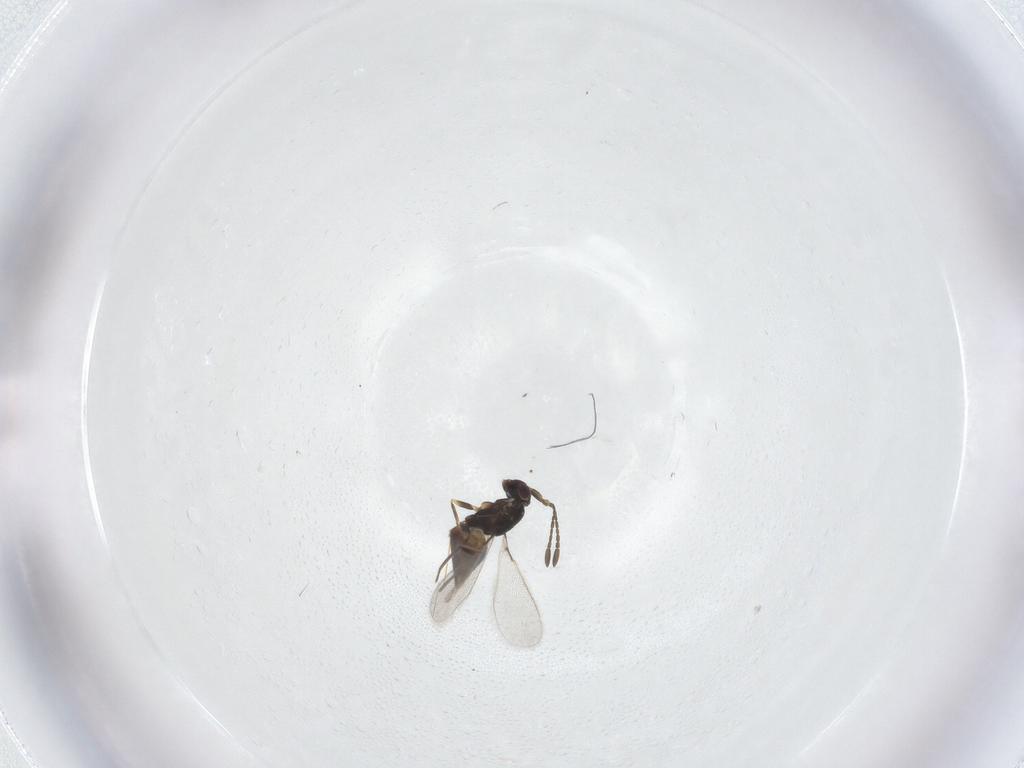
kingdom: Animalia
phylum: Arthropoda
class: Insecta
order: Hymenoptera
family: Mymaridae
